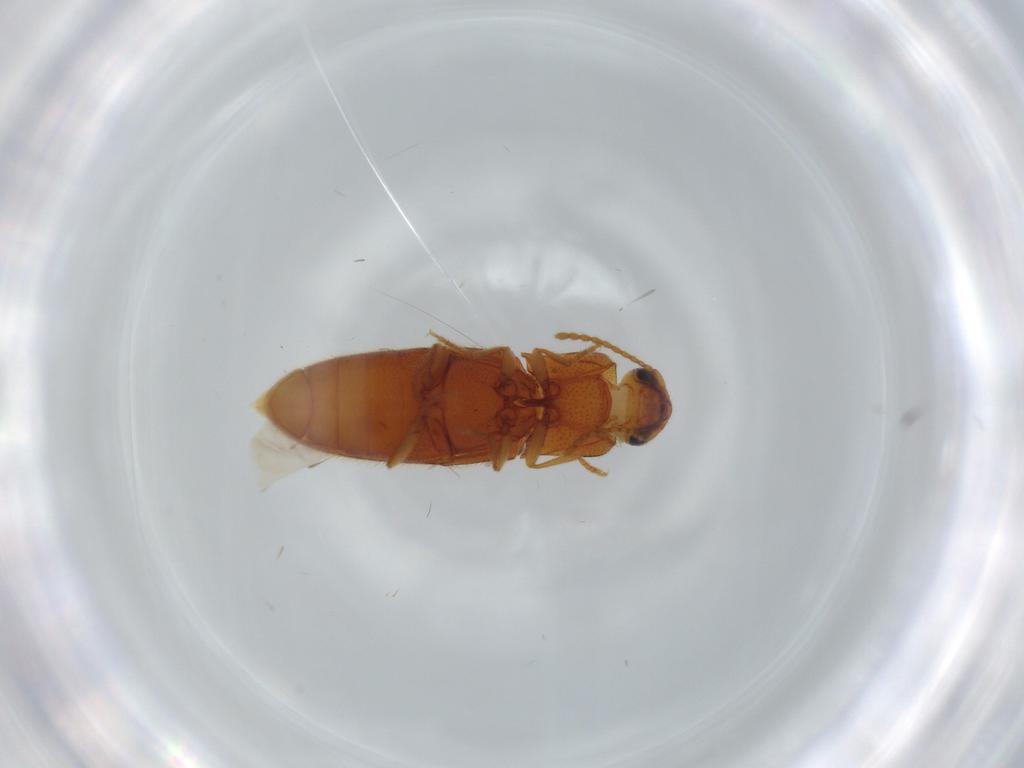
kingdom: Animalia
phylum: Arthropoda
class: Insecta
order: Coleoptera
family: Elateridae
